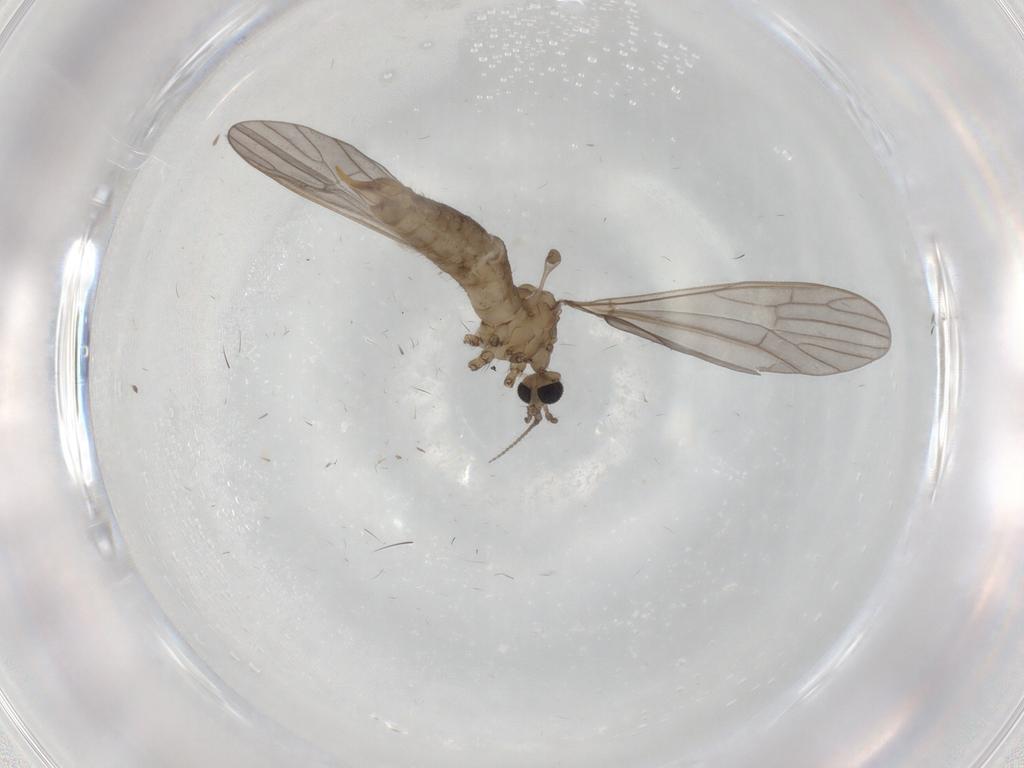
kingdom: Animalia
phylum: Arthropoda
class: Insecta
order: Diptera
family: Limoniidae
